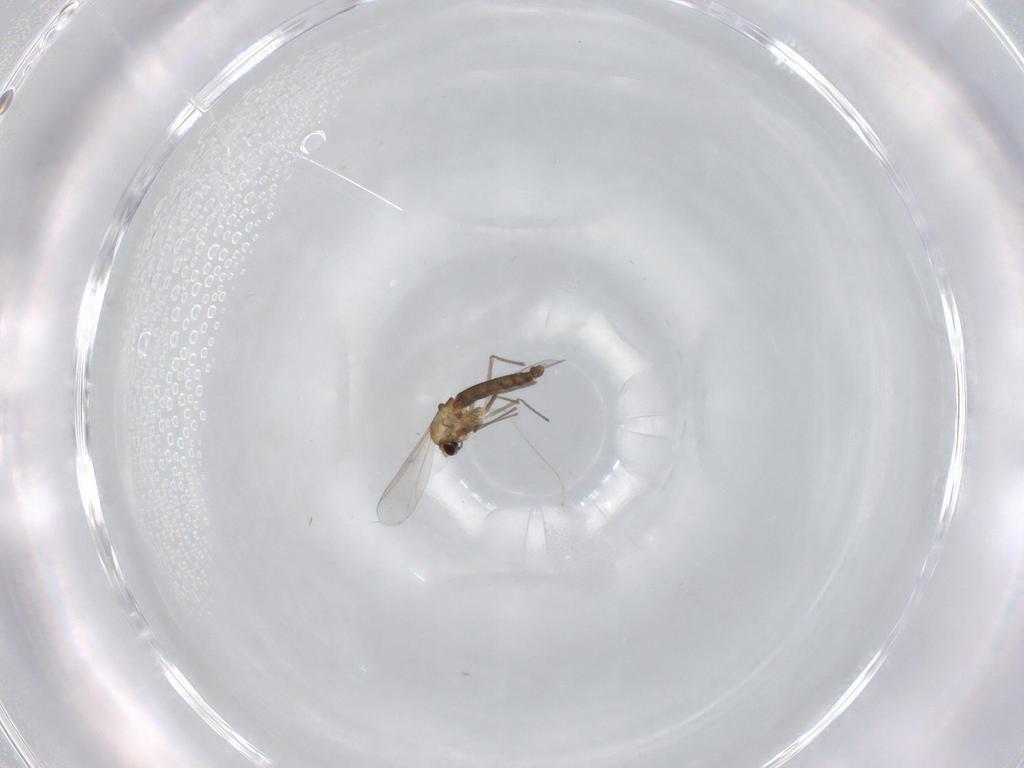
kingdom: Animalia
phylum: Arthropoda
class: Insecta
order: Diptera
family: Chironomidae
